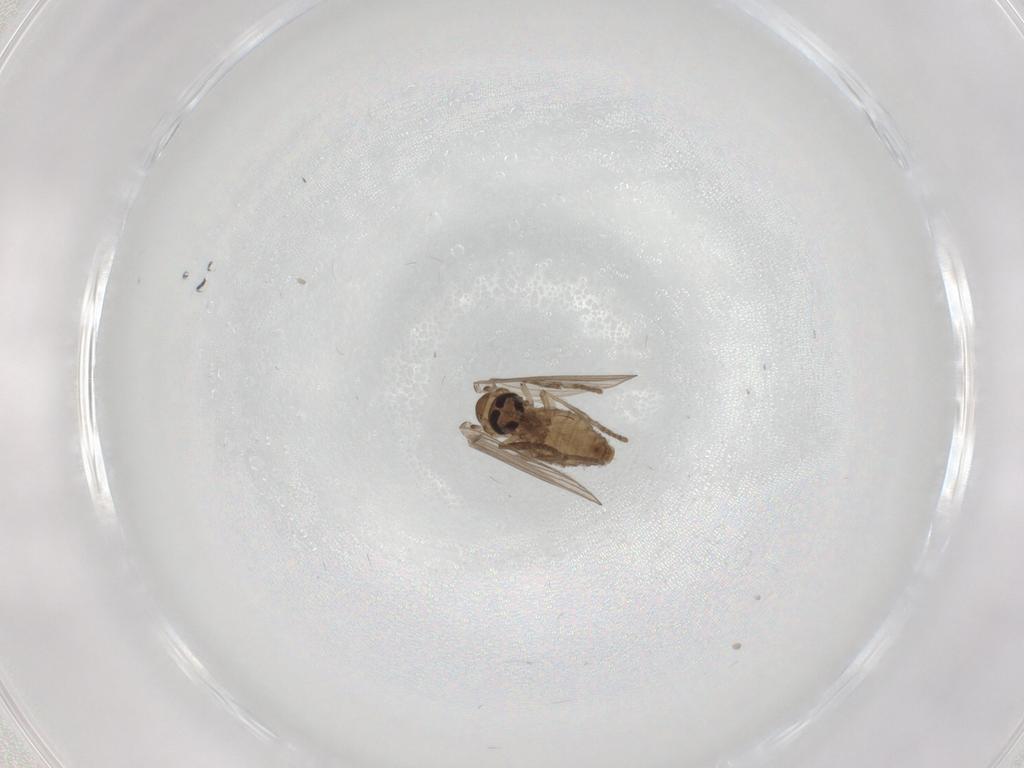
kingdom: Animalia
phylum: Arthropoda
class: Insecta
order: Diptera
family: Psychodidae
